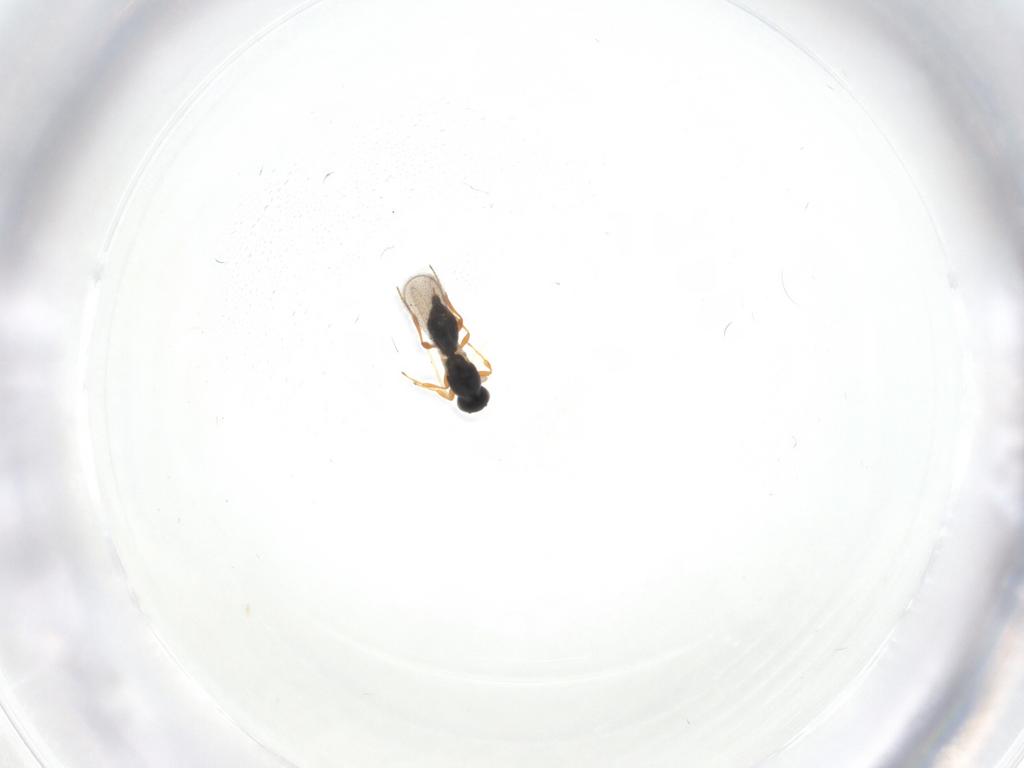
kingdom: Animalia
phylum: Arthropoda
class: Insecta
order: Hymenoptera
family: Platygastridae
